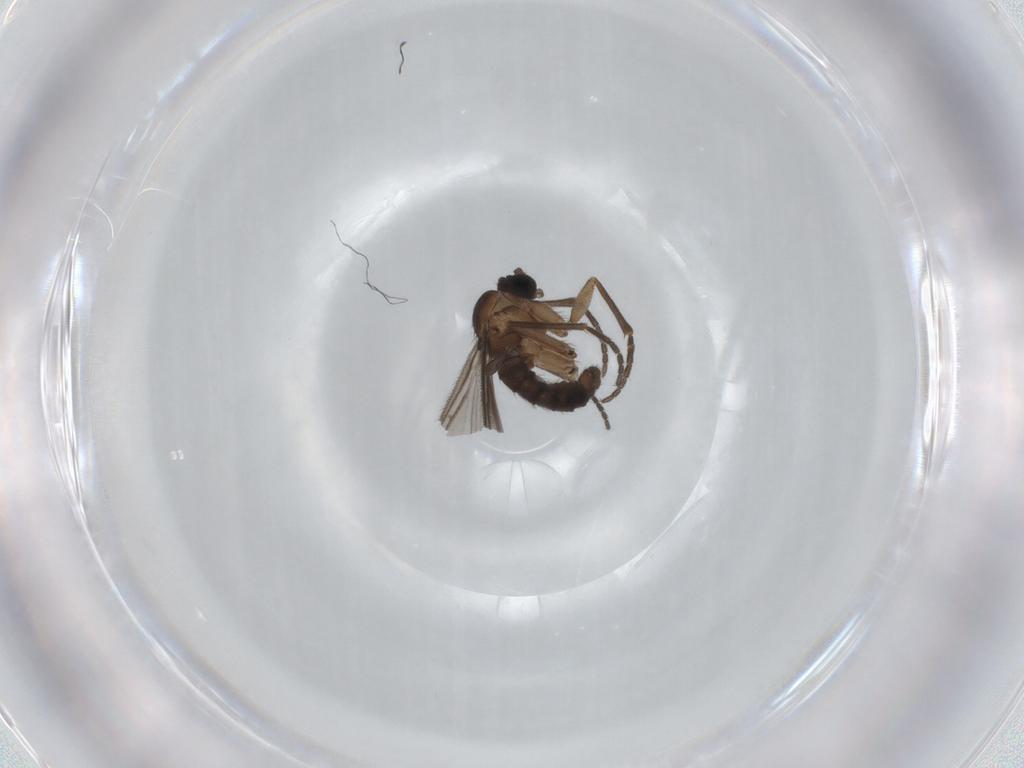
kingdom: Animalia
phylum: Arthropoda
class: Insecta
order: Diptera
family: Sciaridae
